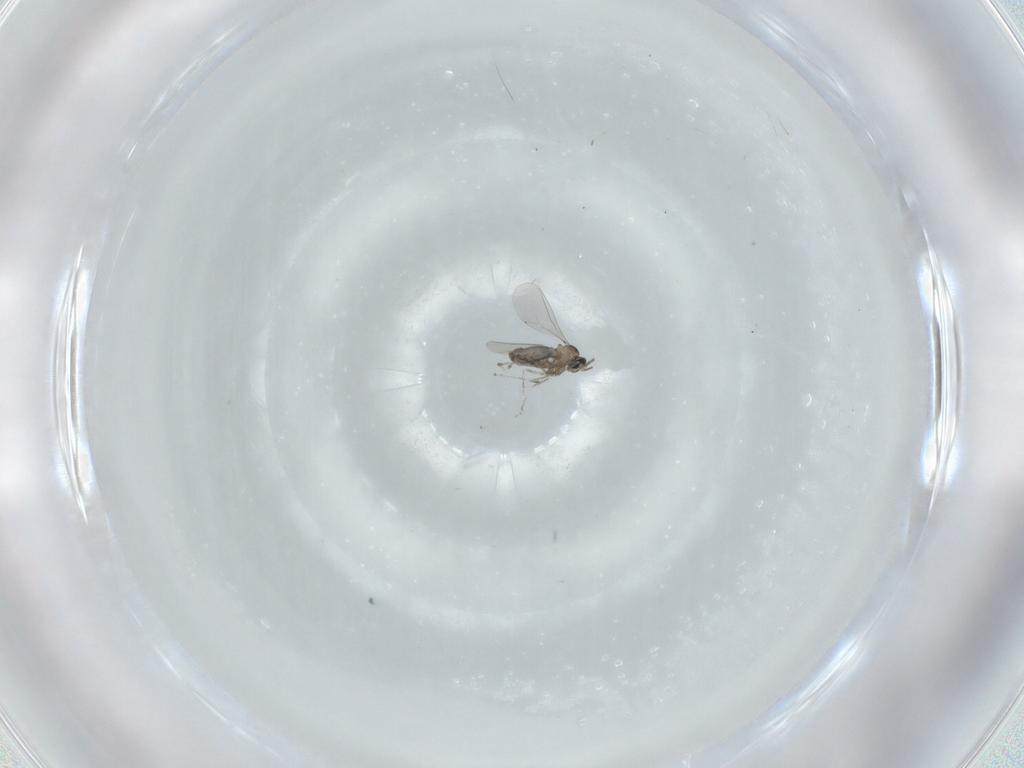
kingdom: Animalia
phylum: Arthropoda
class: Insecta
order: Diptera
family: Cecidomyiidae
